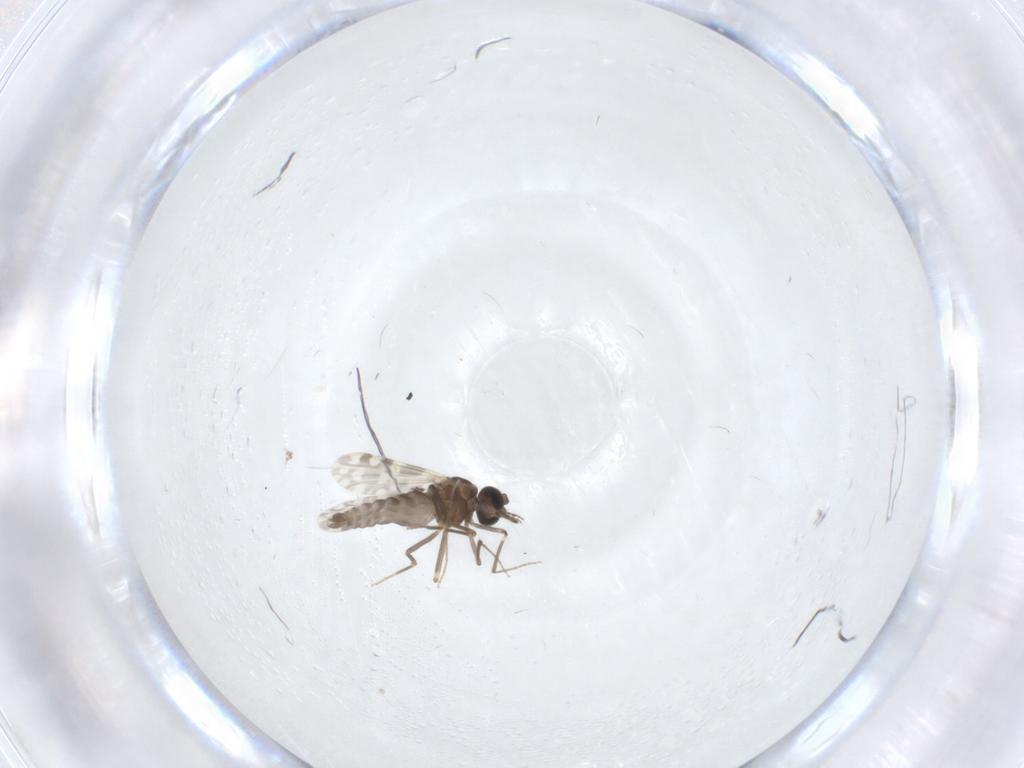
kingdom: Animalia
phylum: Arthropoda
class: Insecta
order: Diptera
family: Ceratopogonidae
